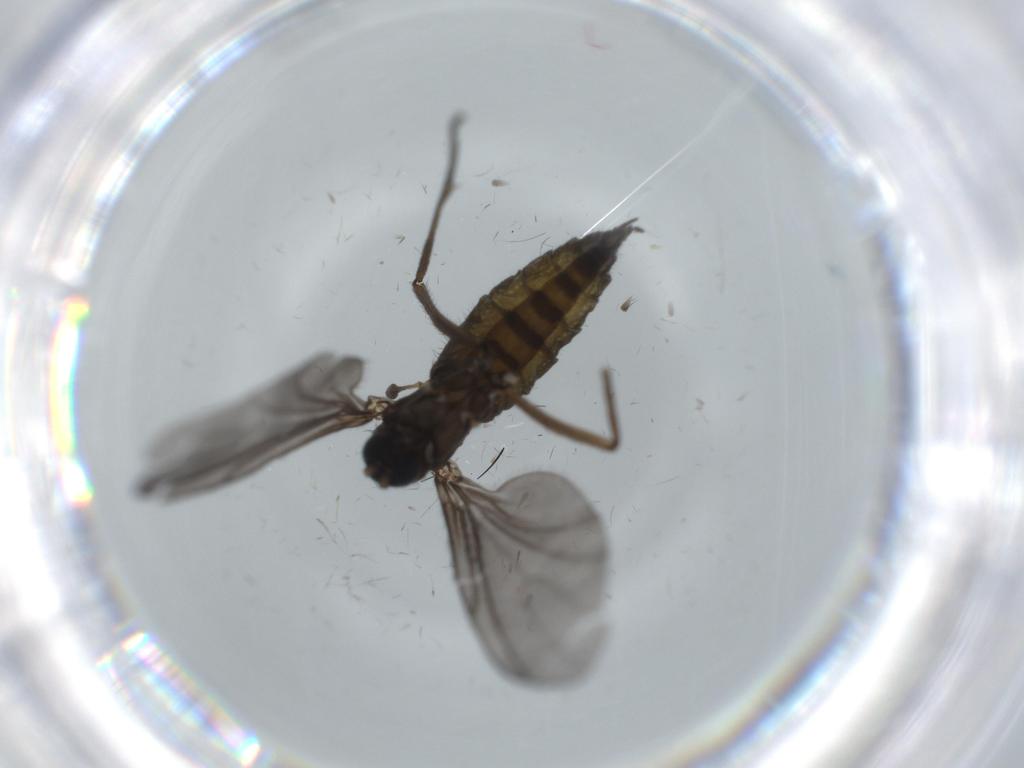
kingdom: Animalia
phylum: Arthropoda
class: Insecta
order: Diptera
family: Sciaridae
